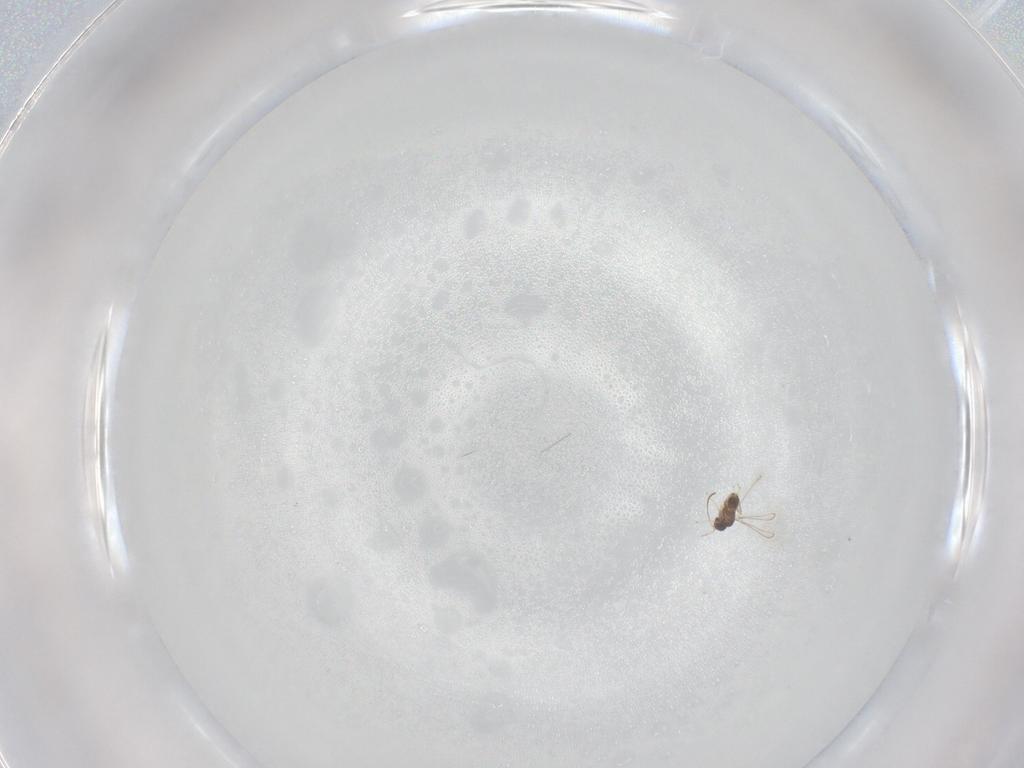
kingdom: Animalia
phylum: Arthropoda
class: Insecta
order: Hymenoptera
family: Mymaridae
